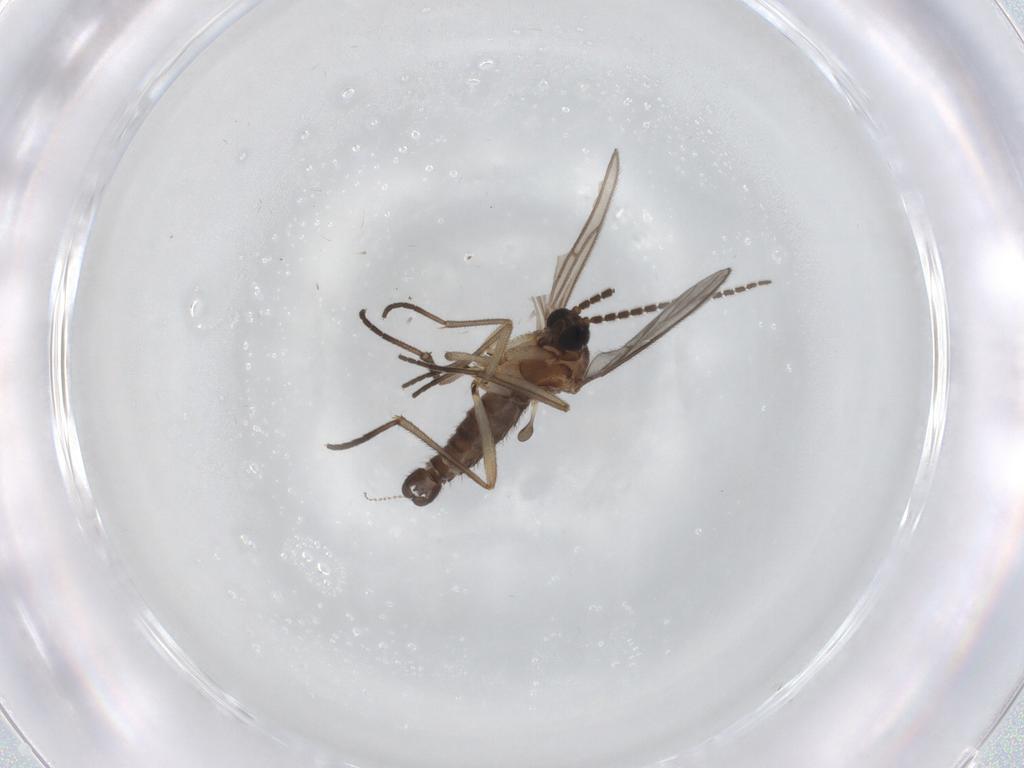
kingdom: Animalia
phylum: Arthropoda
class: Insecta
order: Diptera
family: Sciaridae
